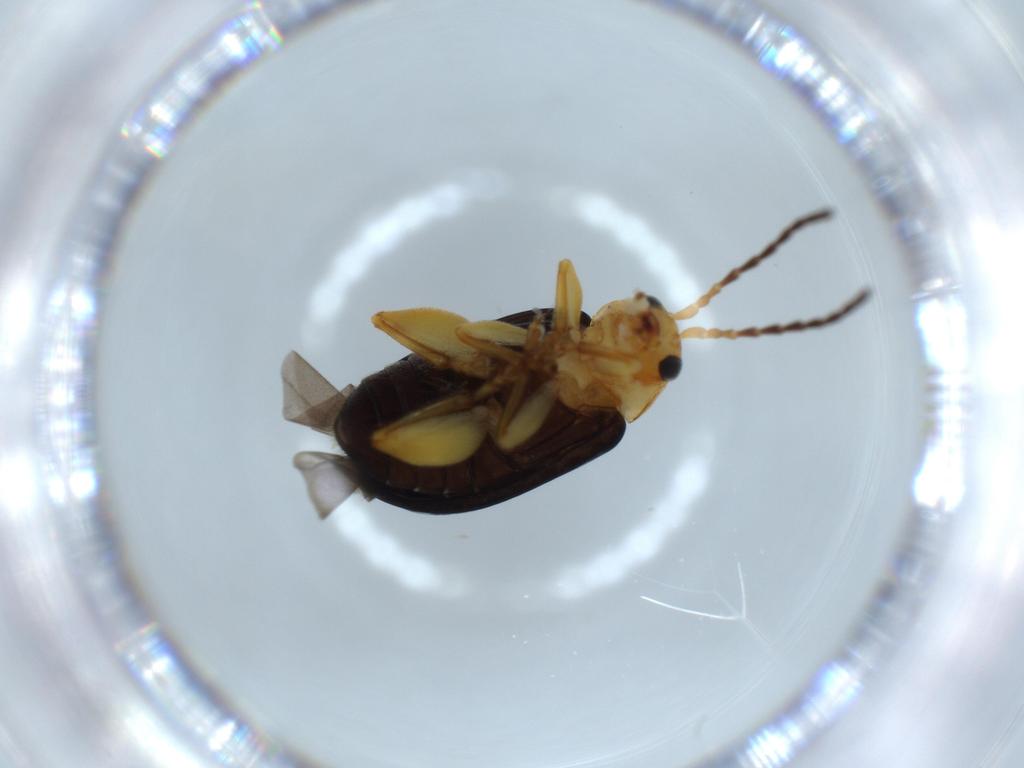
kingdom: Animalia
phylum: Arthropoda
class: Insecta
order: Coleoptera
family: Chrysomelidae
